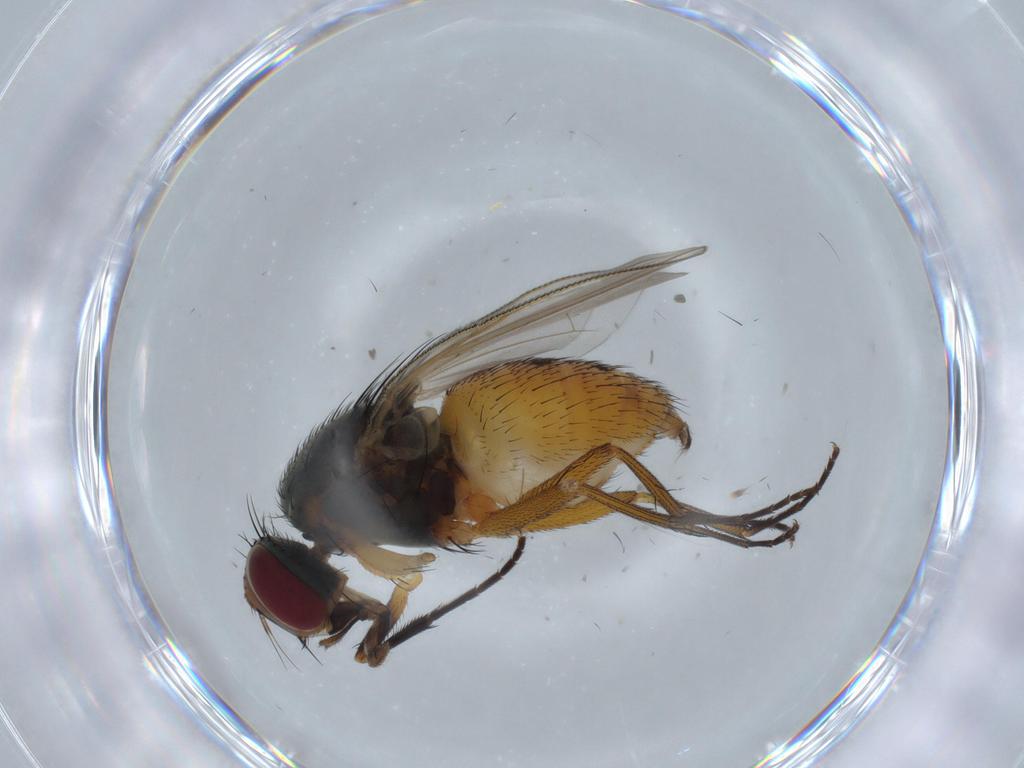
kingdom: Animalia
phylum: Arthropoda
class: Insecta
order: Diptera
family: Muscidae
